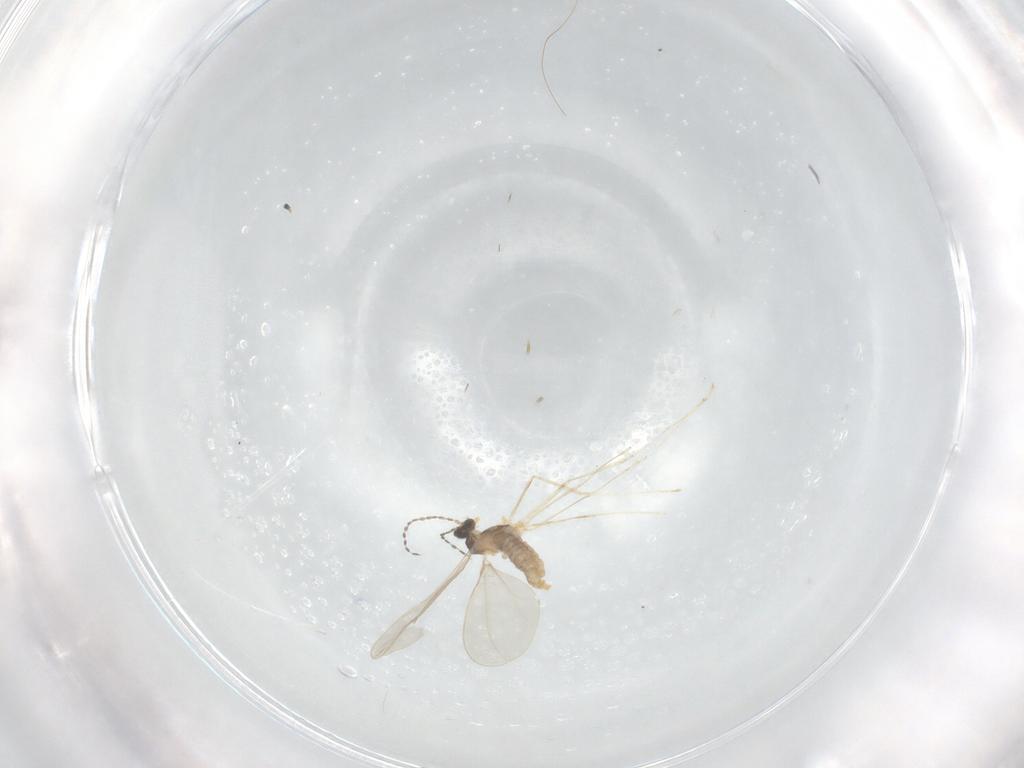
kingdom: Animalia
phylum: Arthropoda
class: Insecta
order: Diptera
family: Cecidomyiidae
